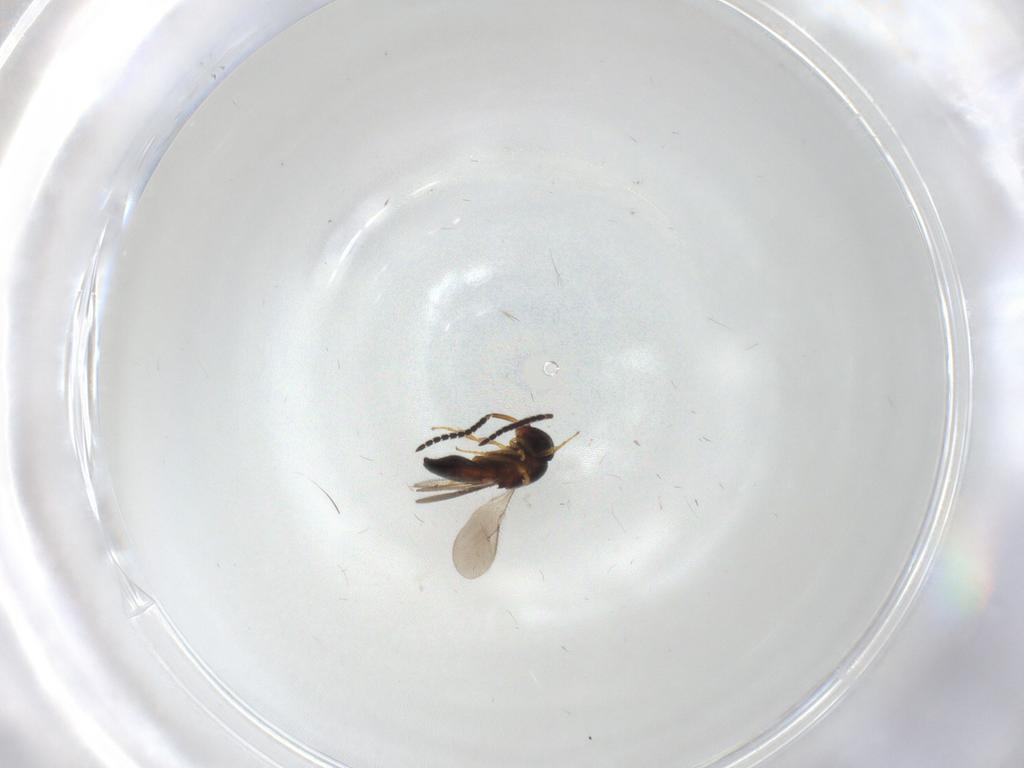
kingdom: Animalia
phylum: Arthropoda
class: Insecta
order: Hymenoptera
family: Scelionidae
